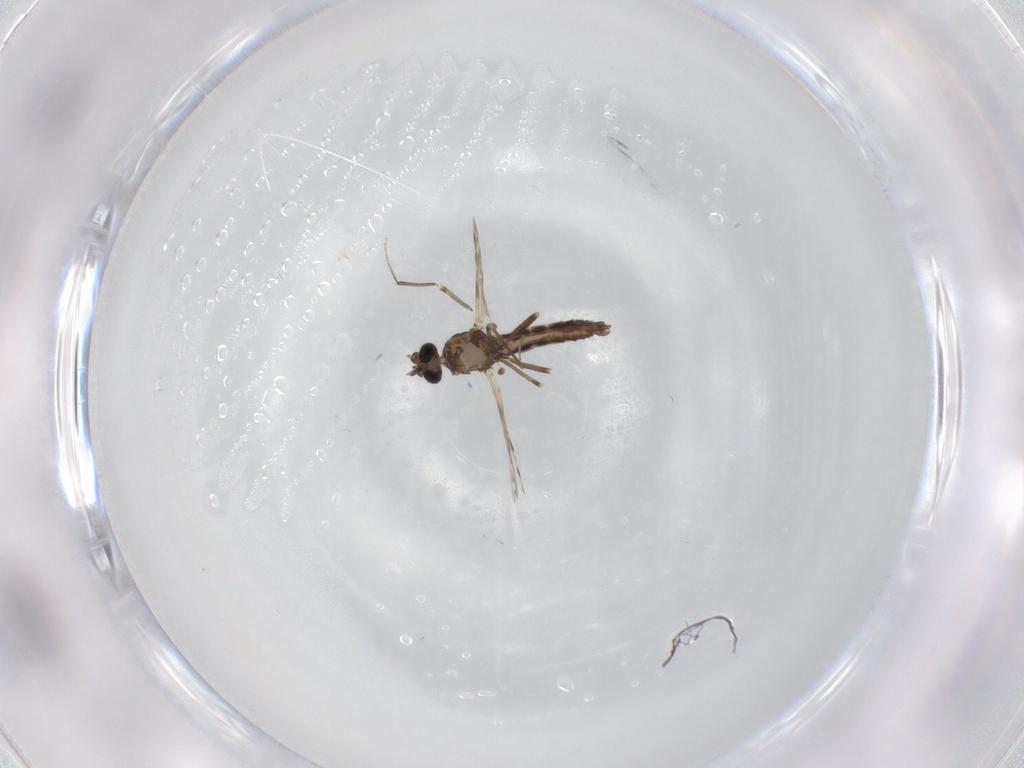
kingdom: Animalia
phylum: Arthropoda
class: Insecta
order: Diptera
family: Ceratopogonidae
